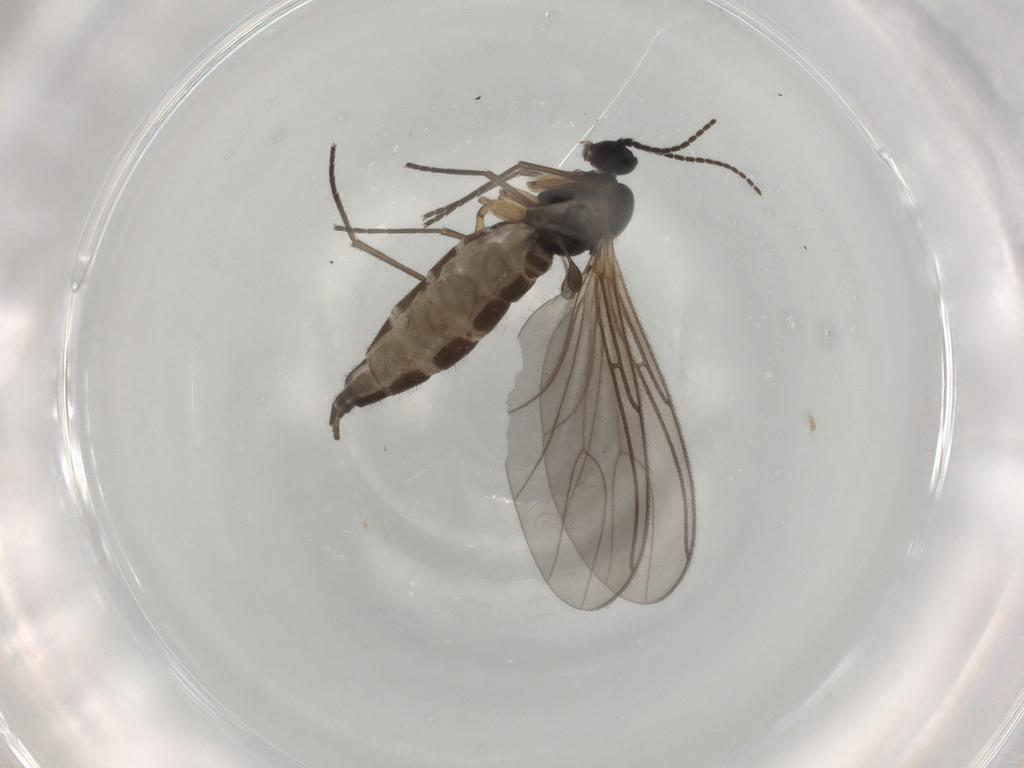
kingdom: Animalia
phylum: Arthropoda
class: Insecta
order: Diptera
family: Sciaridae
